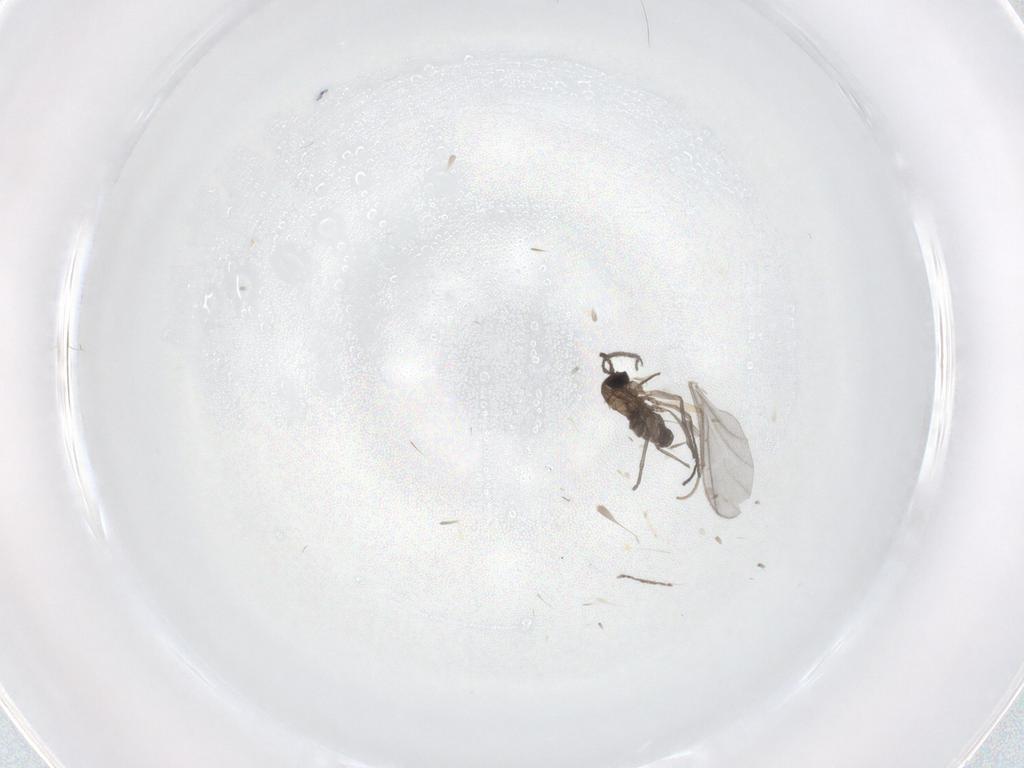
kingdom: Animalia
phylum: Arthropoda
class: Insecta
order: Diptera
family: Sciaridae
